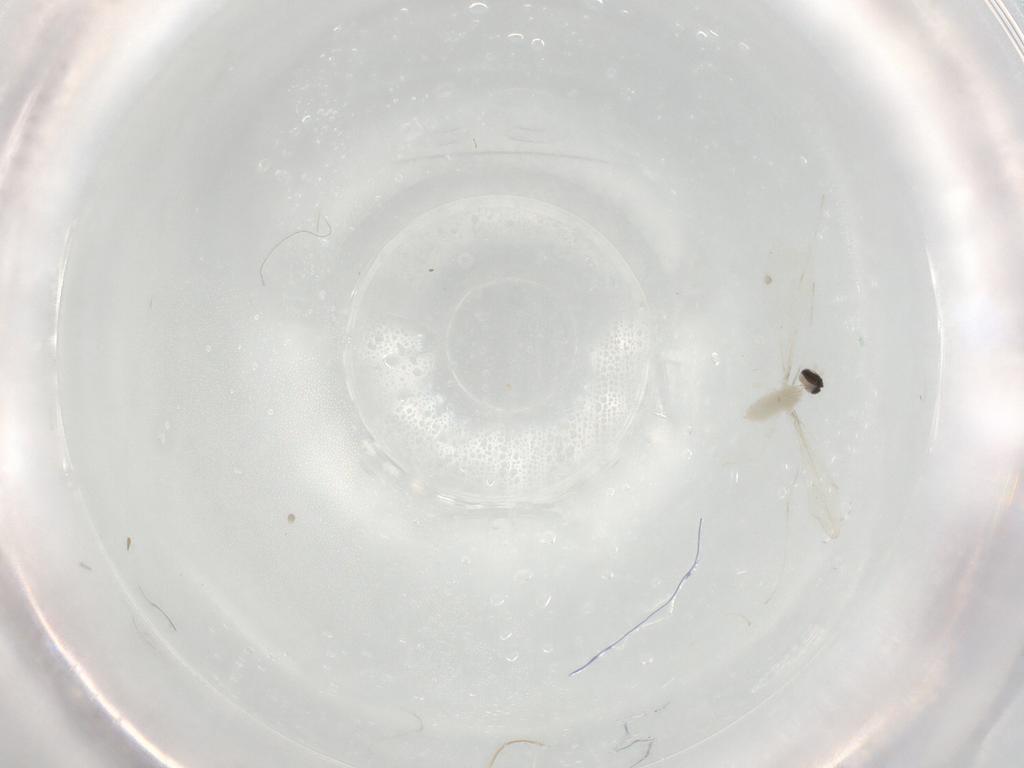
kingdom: Animalia
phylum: Arthropoda
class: Insecta
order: Diptera
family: Cecidomyiidae
